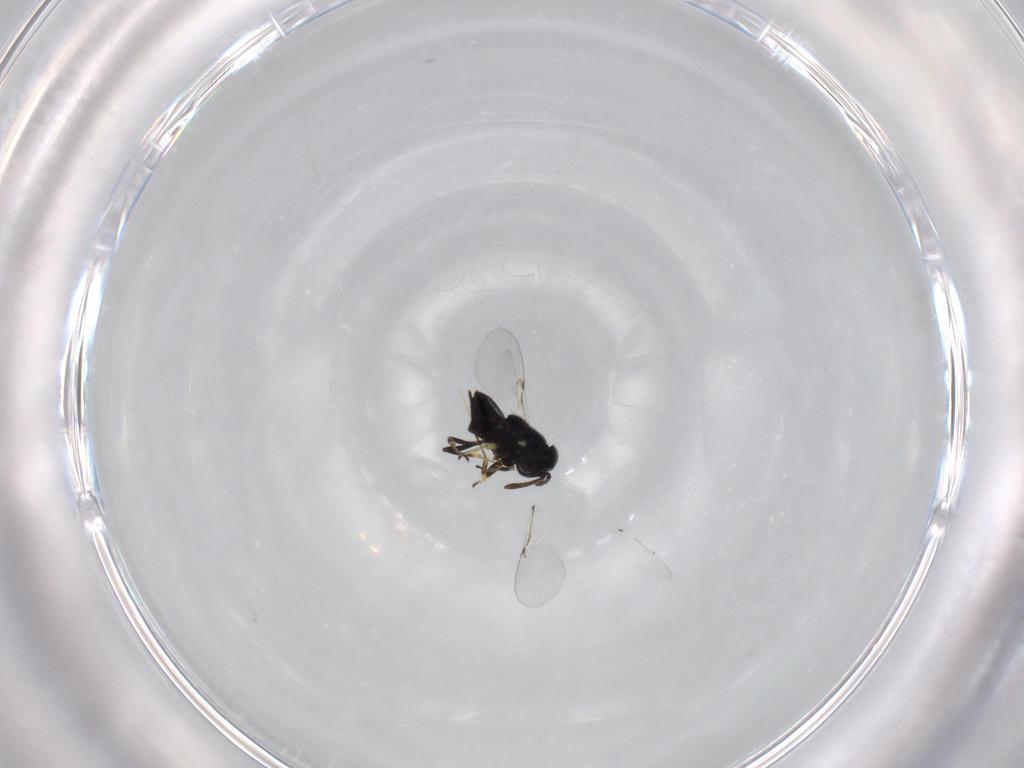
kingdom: Animalia
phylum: Arthropoda
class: Insecta
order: Hymenoptera
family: Encyrtidae
